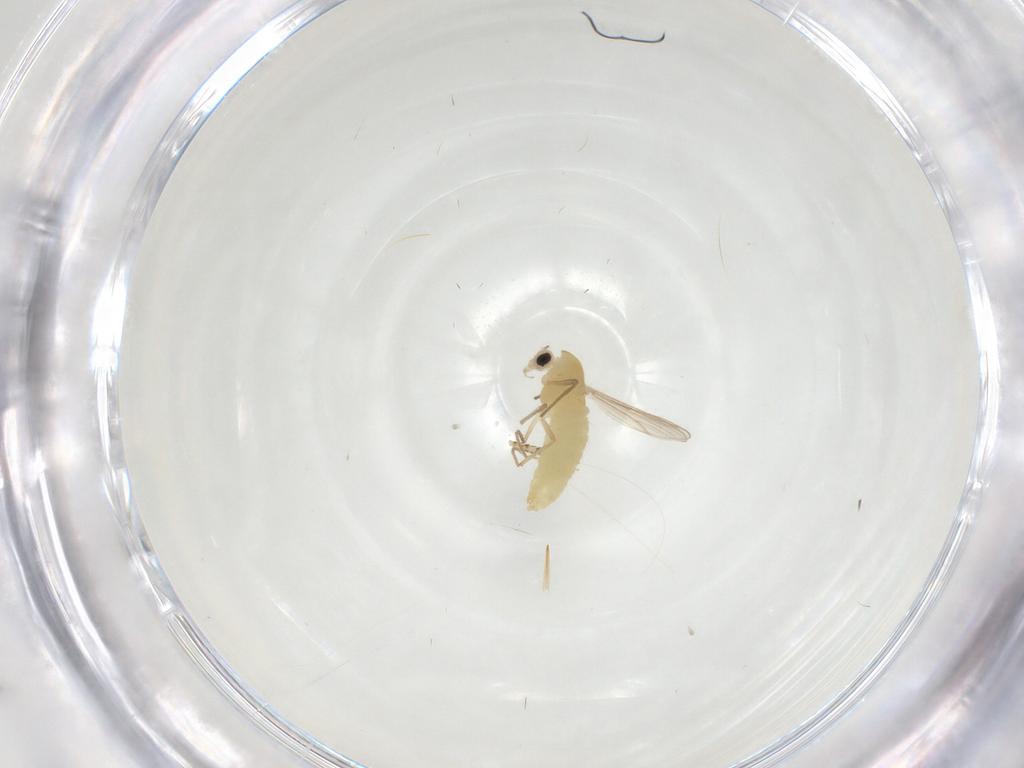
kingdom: Animalia
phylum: Arthropoda
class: Insecta
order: Diptera
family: Chironomidae
